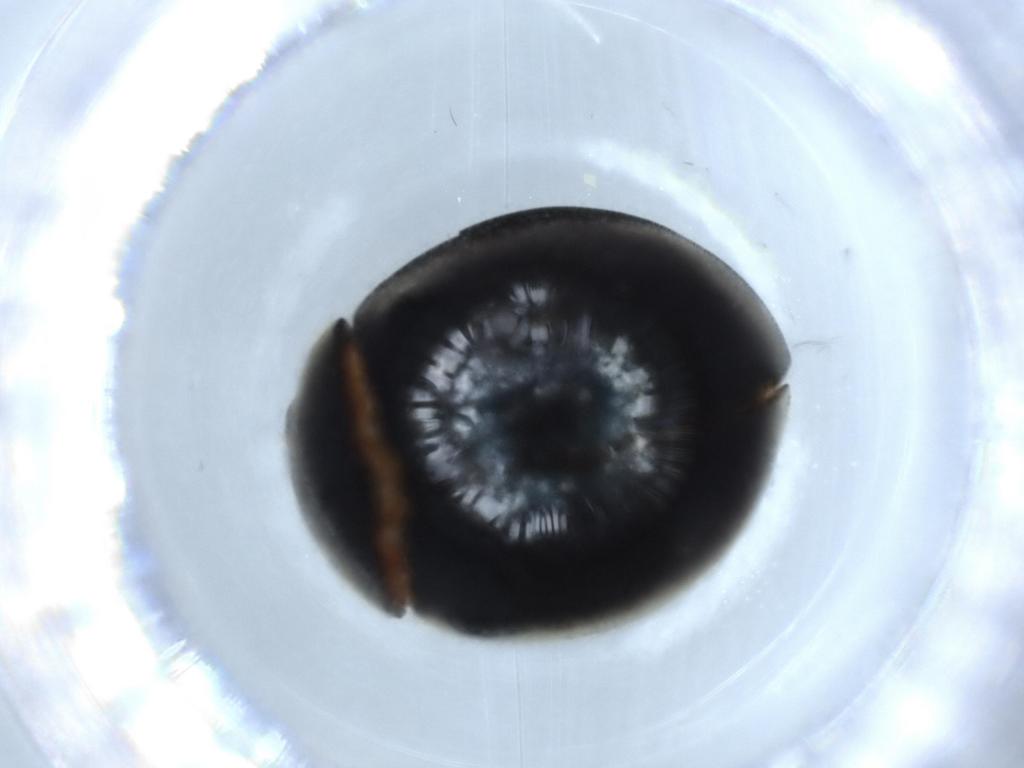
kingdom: Animalia
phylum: Arthropoda
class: Insecta
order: Coleoptera
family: Coccinellidae
